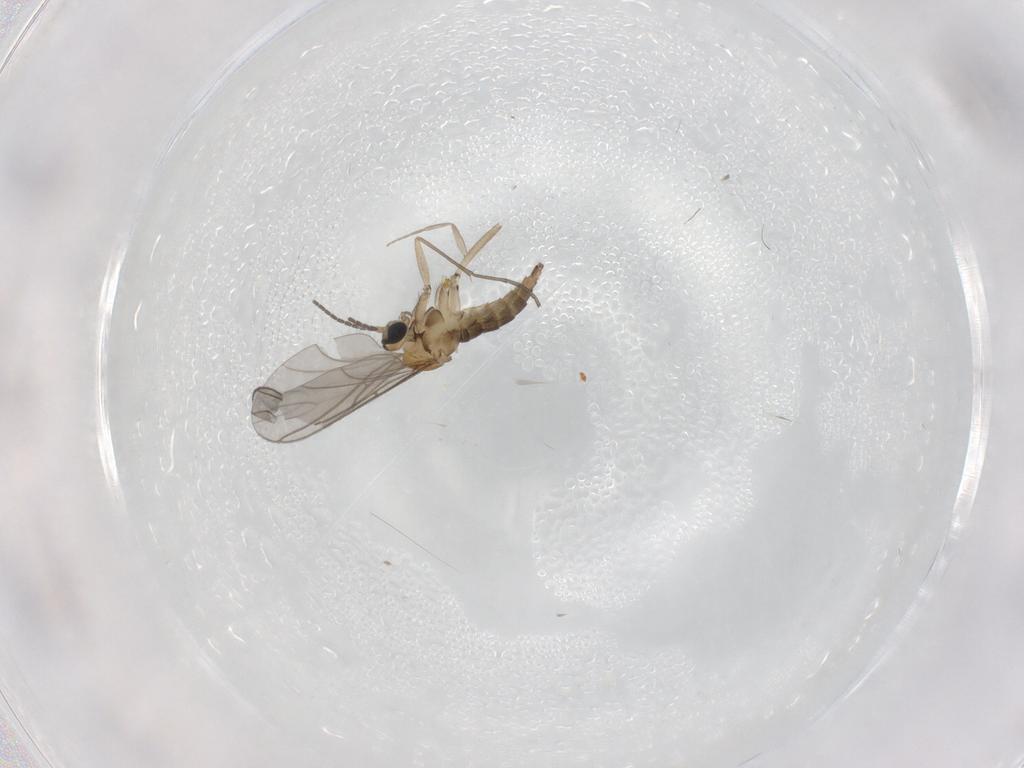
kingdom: Animalia
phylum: Arthropoda
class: Insecta
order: Diptera
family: Sciaridae
